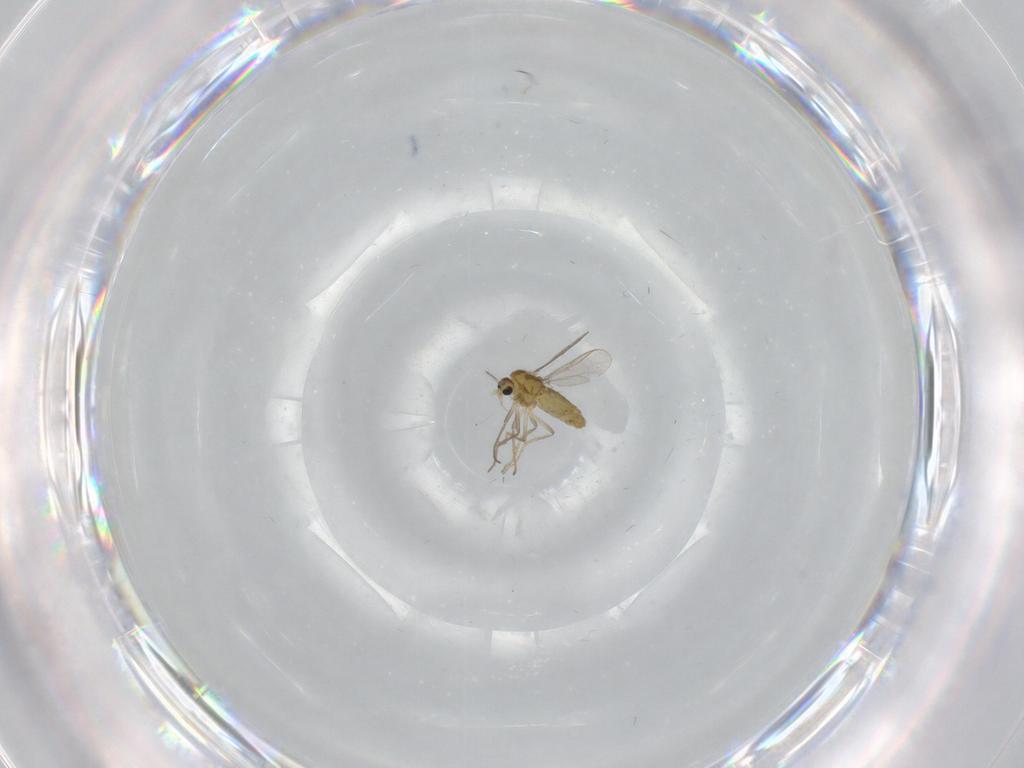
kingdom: Animalia
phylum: Arthropoda
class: Insecta
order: Diptera
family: Chironomidae
